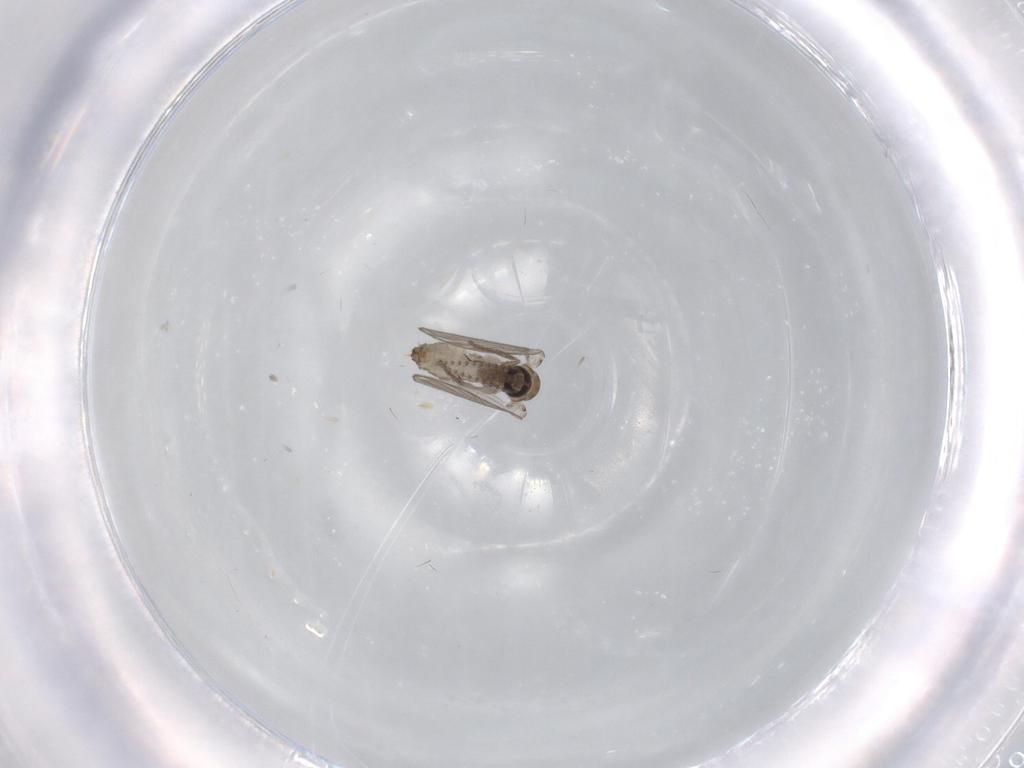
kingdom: Animalia
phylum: Arthropoda
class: Insecta
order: Diptera
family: Psychodidae
